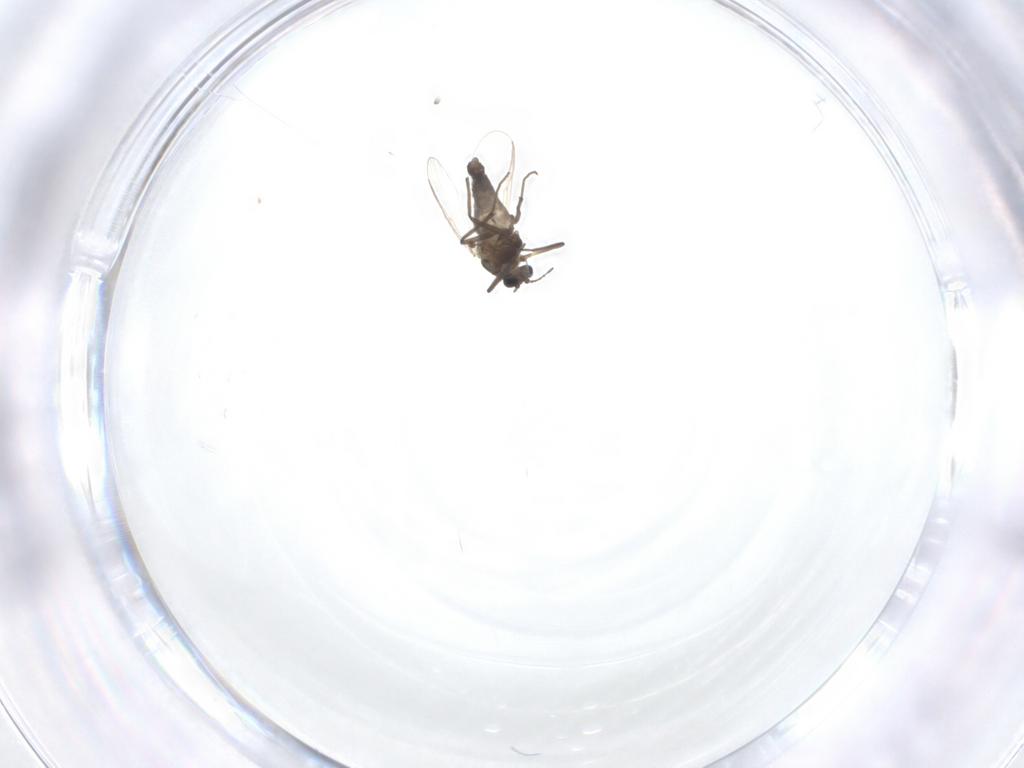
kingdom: Animalia
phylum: Arthropoda
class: Insecta
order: Diptera
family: Chironomidae
